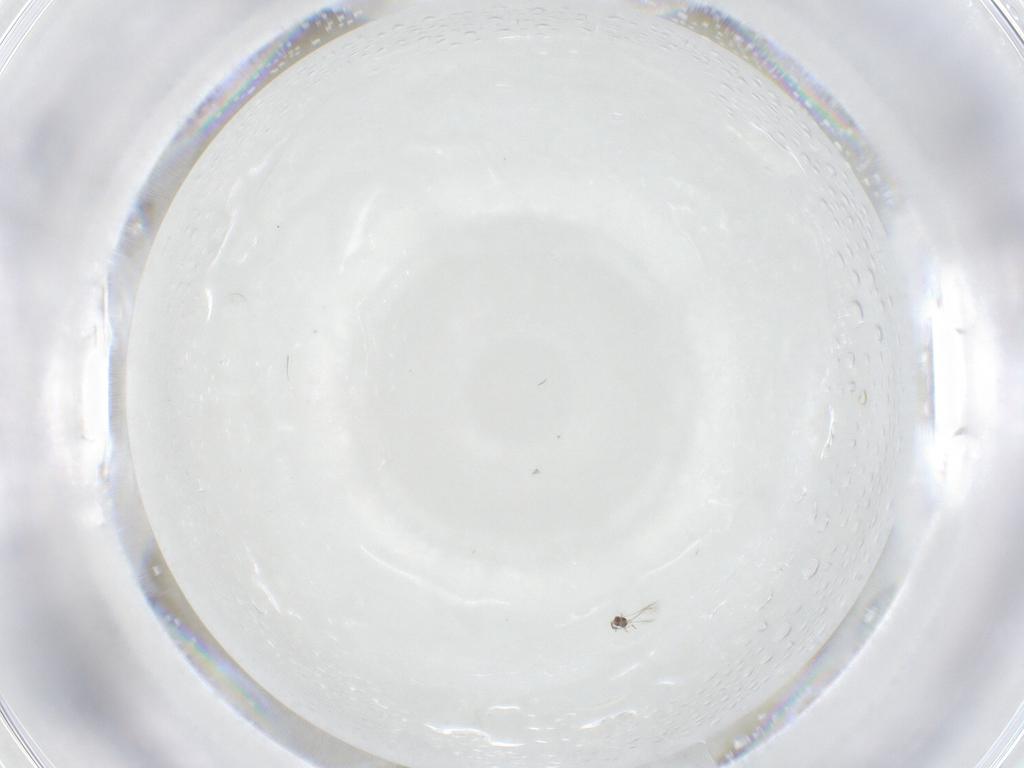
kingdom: Animalia
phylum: Arthropoda
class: Insecta
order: Hymenoptera
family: Mymaridae
